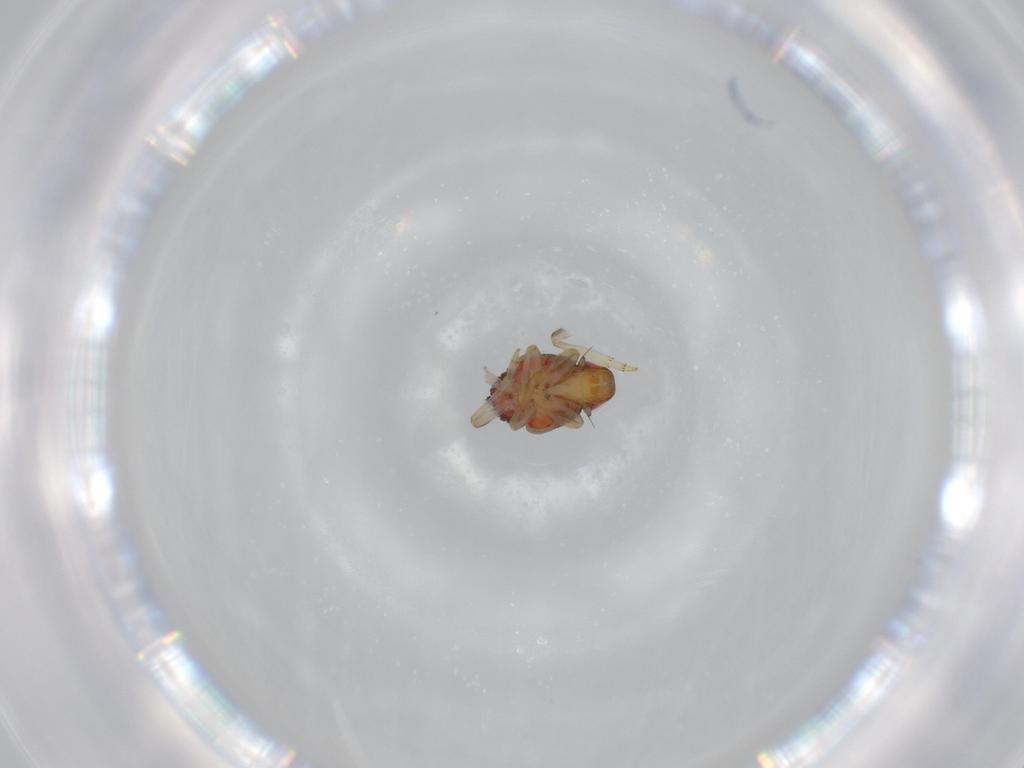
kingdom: Animalia
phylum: Arthropoda
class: Insecta
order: Hemiptera
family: Issidae
